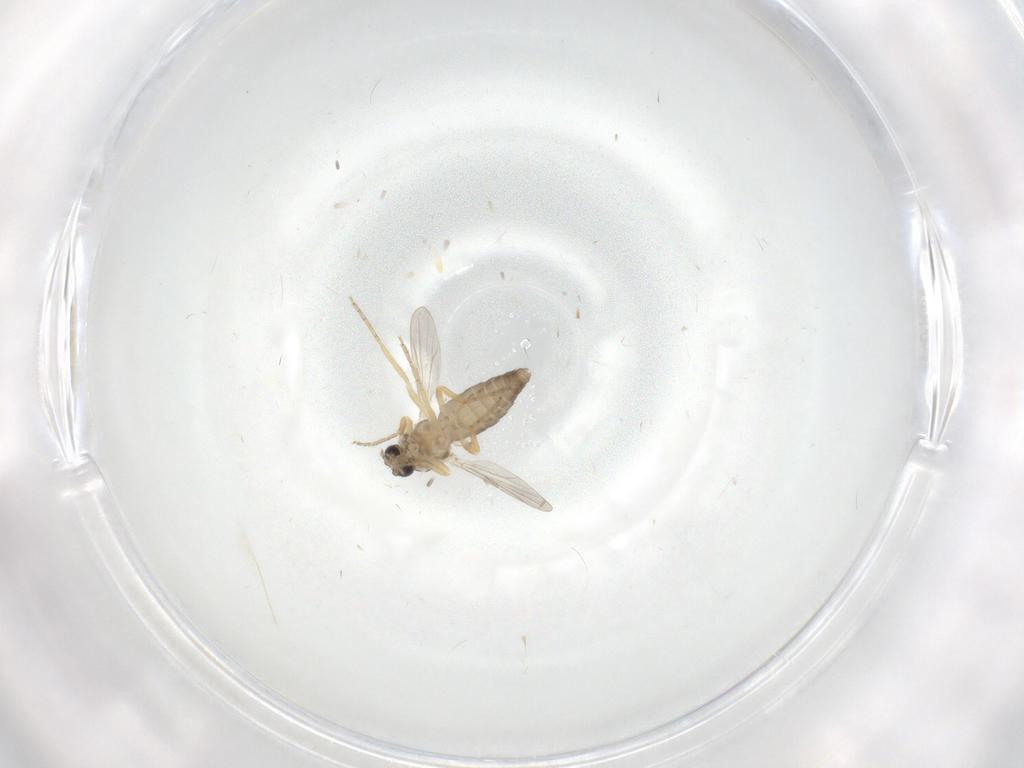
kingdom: Animalia
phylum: Arthropoda
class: Insecta
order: Diptera
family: Ceratopogonidae
